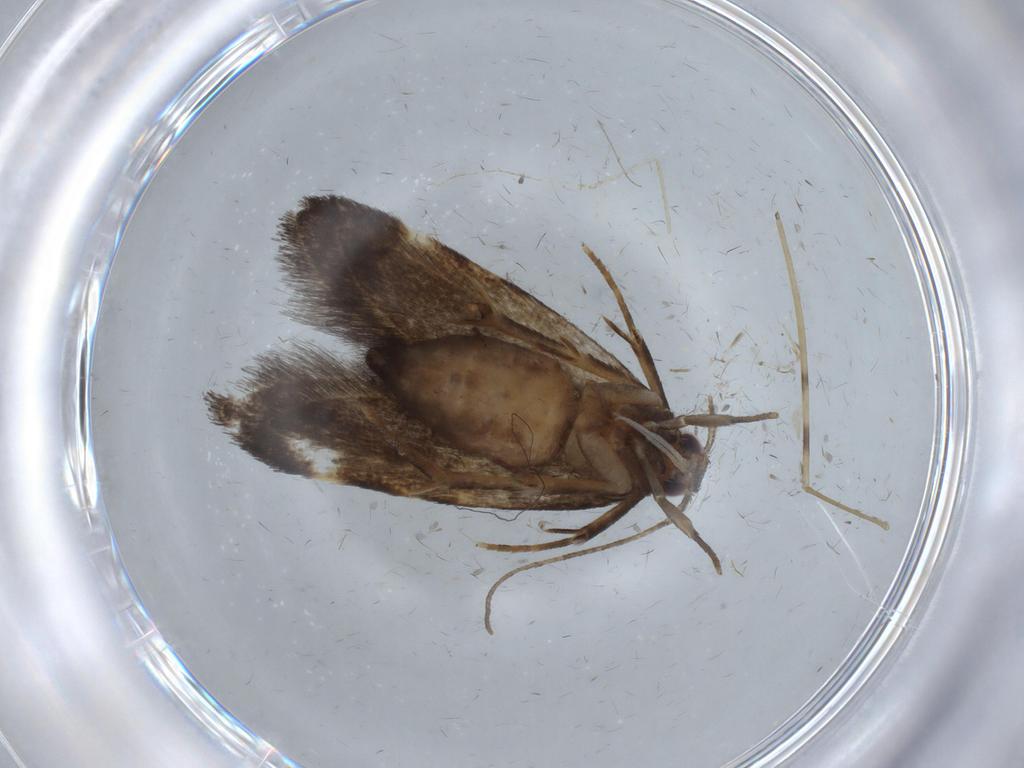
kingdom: Animalia
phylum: Arthropoda
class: Insecta
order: Lepidoptera
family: Cosmopterigidae
